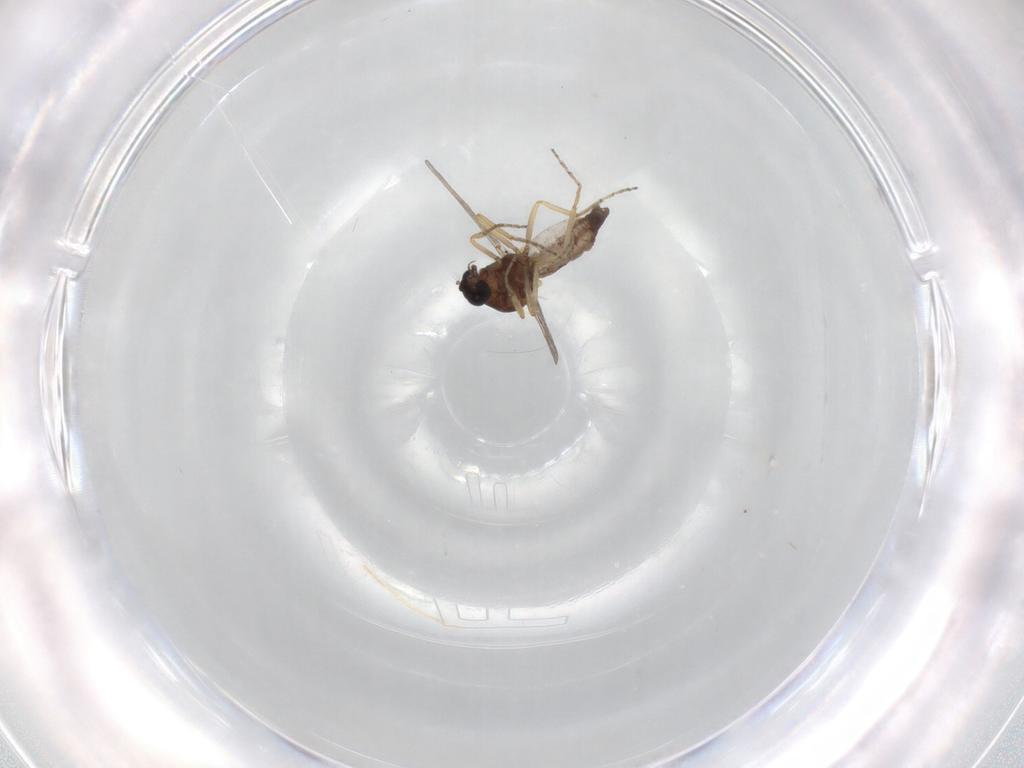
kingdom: Animalia
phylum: Arthropoda
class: Insecta
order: Diptera
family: Ceratopogonidae
